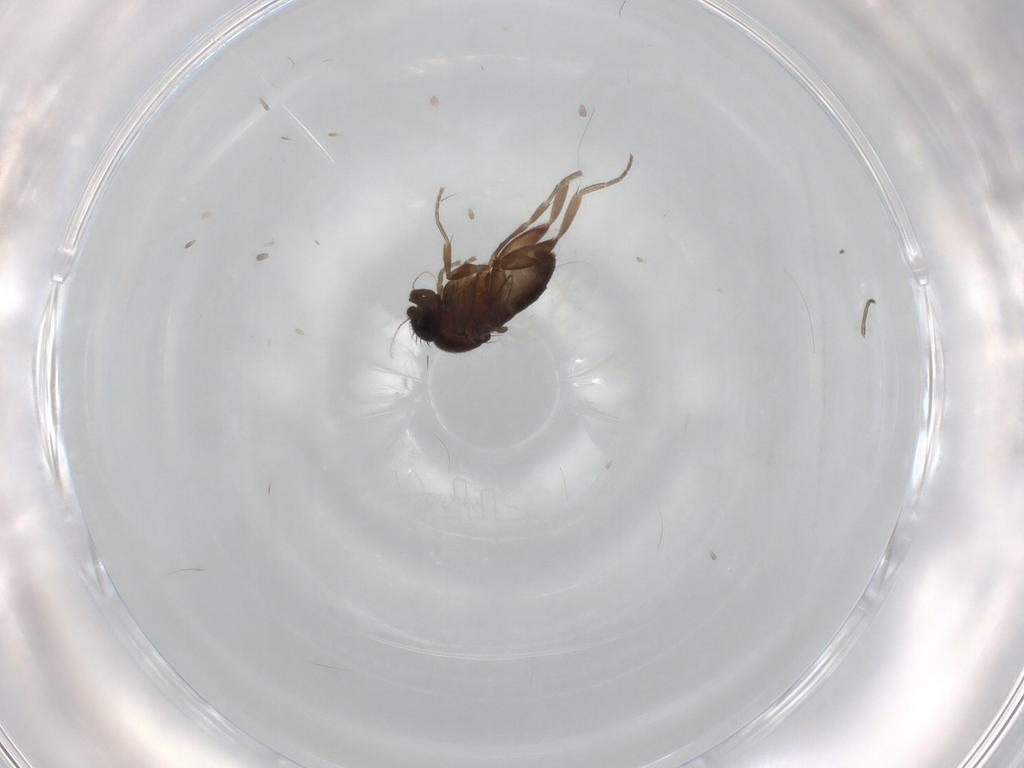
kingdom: Animalia
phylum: Arthropoda
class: Insecta
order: Diptera
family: Phoridae
